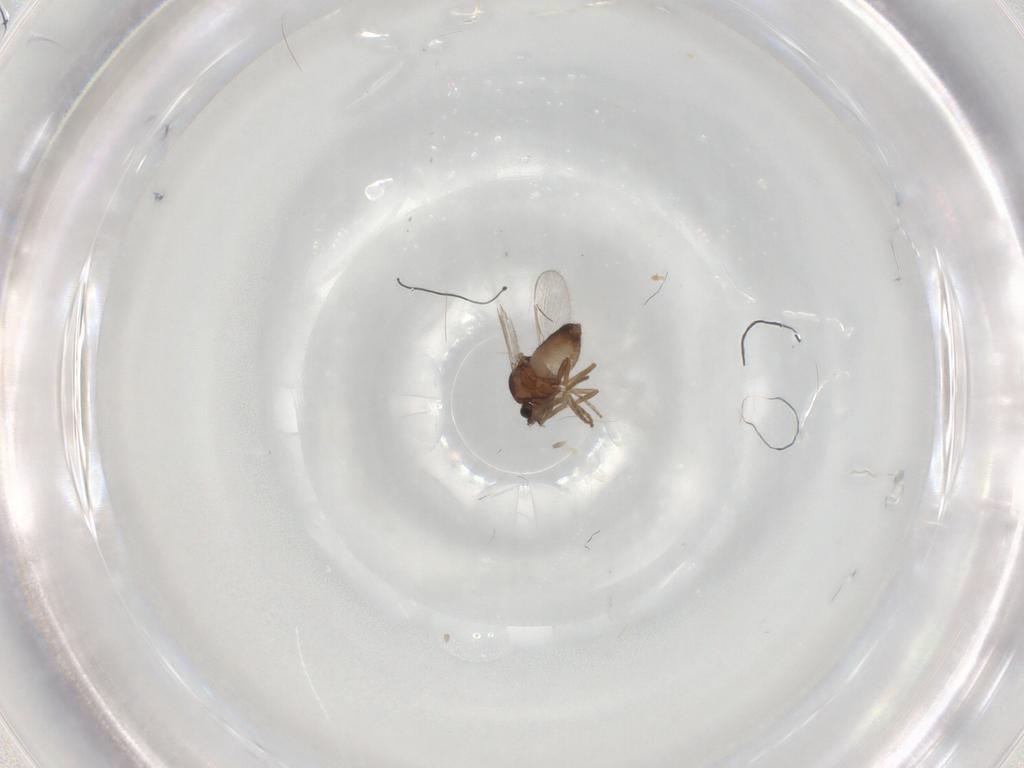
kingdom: Animalia
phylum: Arthropoda
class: Insecta
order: Diptera
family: Ceratopogonidae
